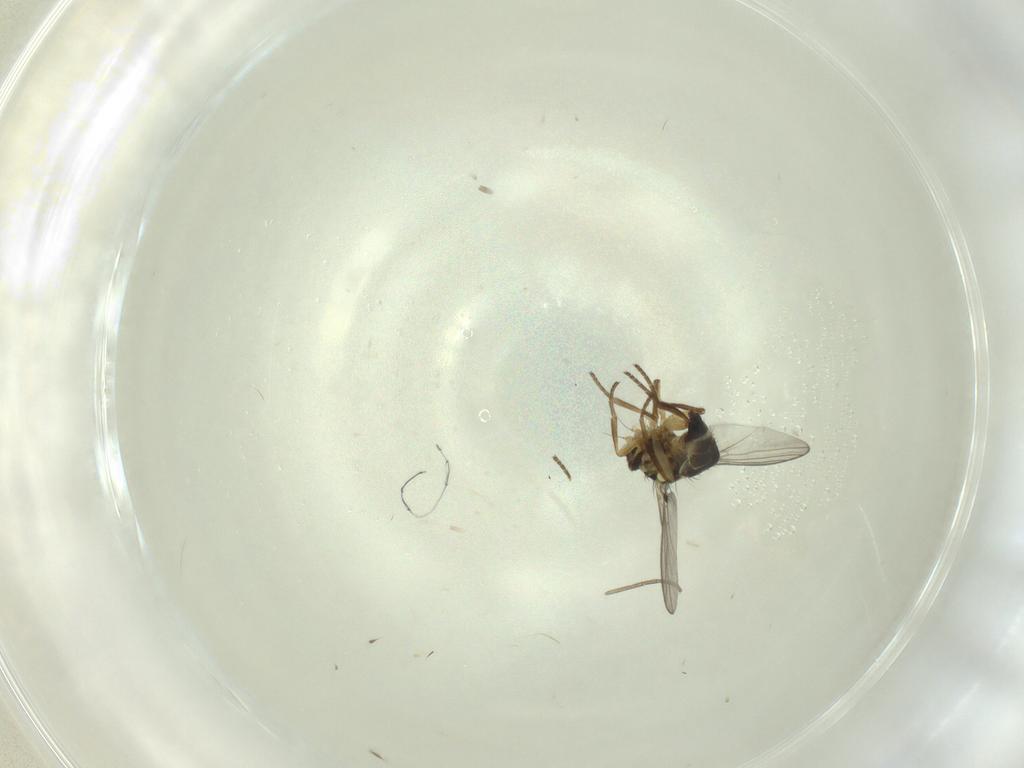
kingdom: Animalia
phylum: Arthropoda
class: Insecta
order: Diptera
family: Agromyzidae
